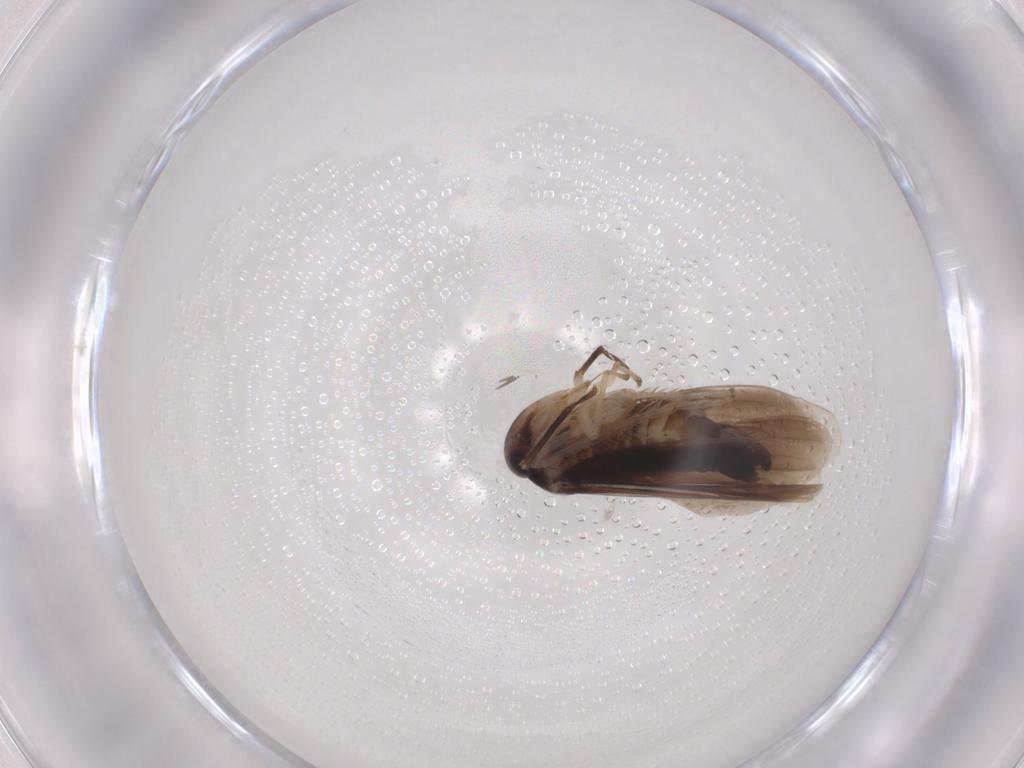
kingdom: Animalia
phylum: Arthropoda
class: Insecta
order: Hemiptera
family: Cicadellidae
